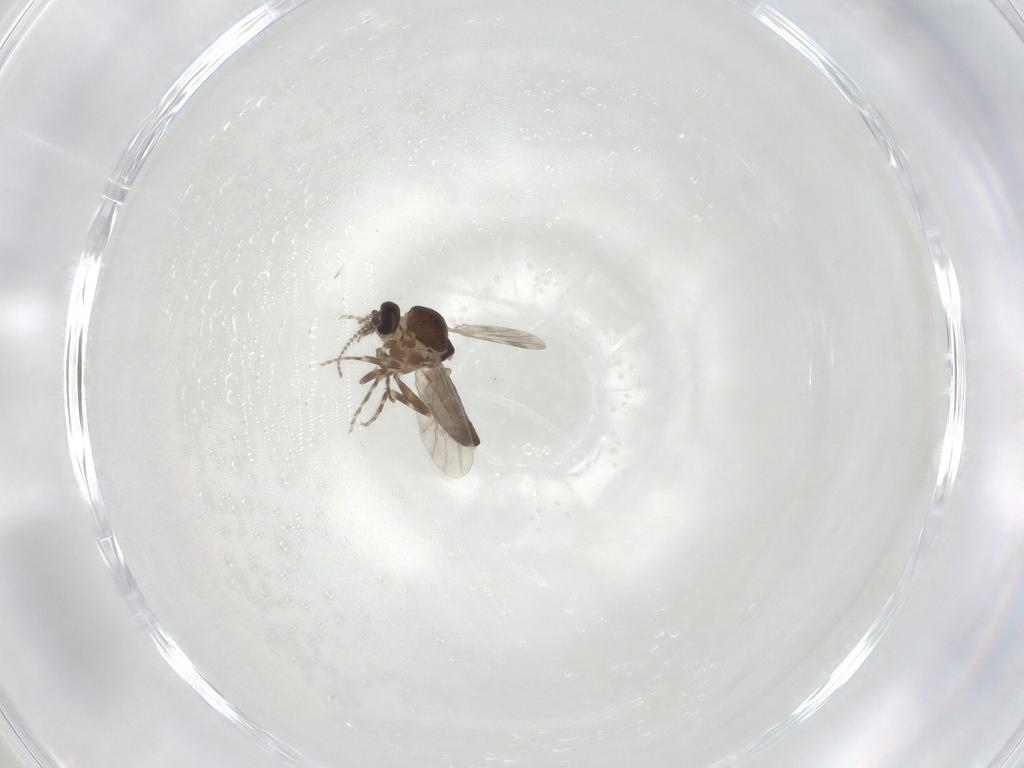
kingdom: Animalia
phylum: Arthropoda
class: Insecta
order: Diptera
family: Ceratopogonidae
